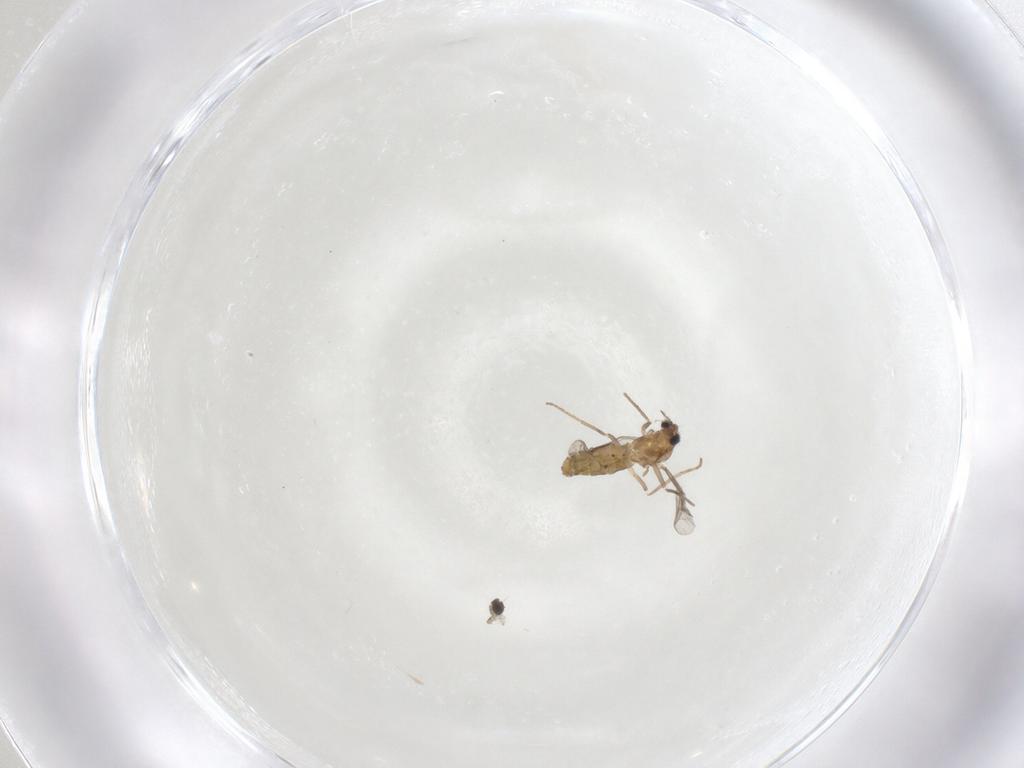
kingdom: Animalia
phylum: Arthropoda
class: Insecta
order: Diptera
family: Chironomidae
